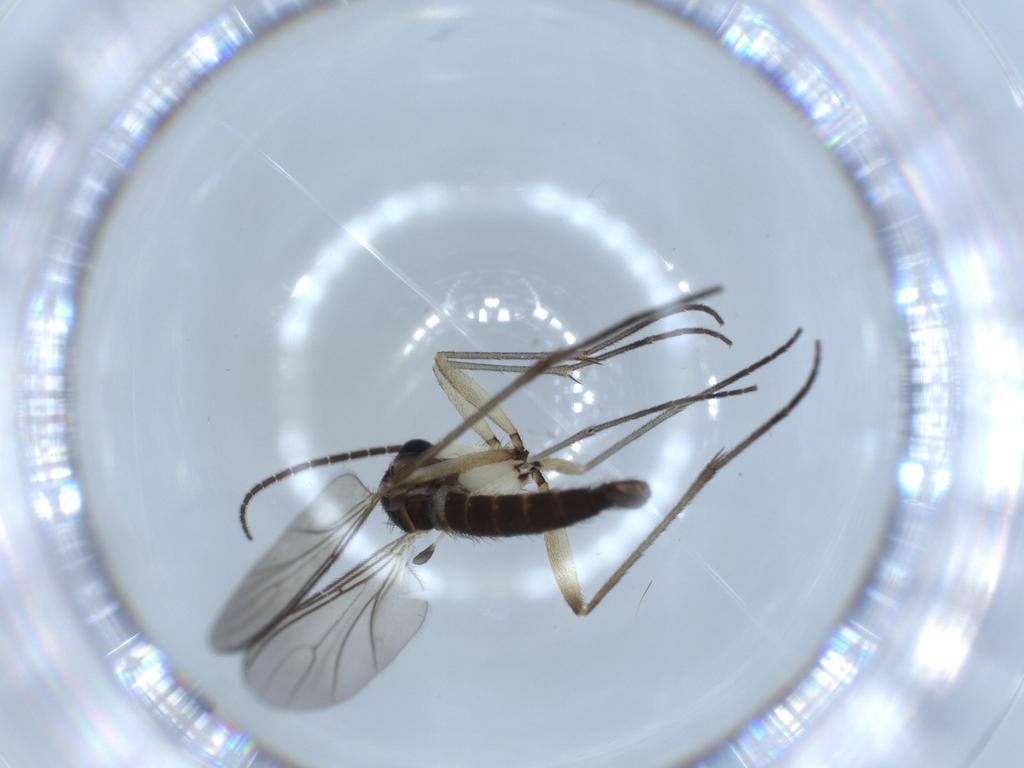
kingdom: Animalia
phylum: Arthropoda
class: Insecta
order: Diptera
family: Sciaridae
